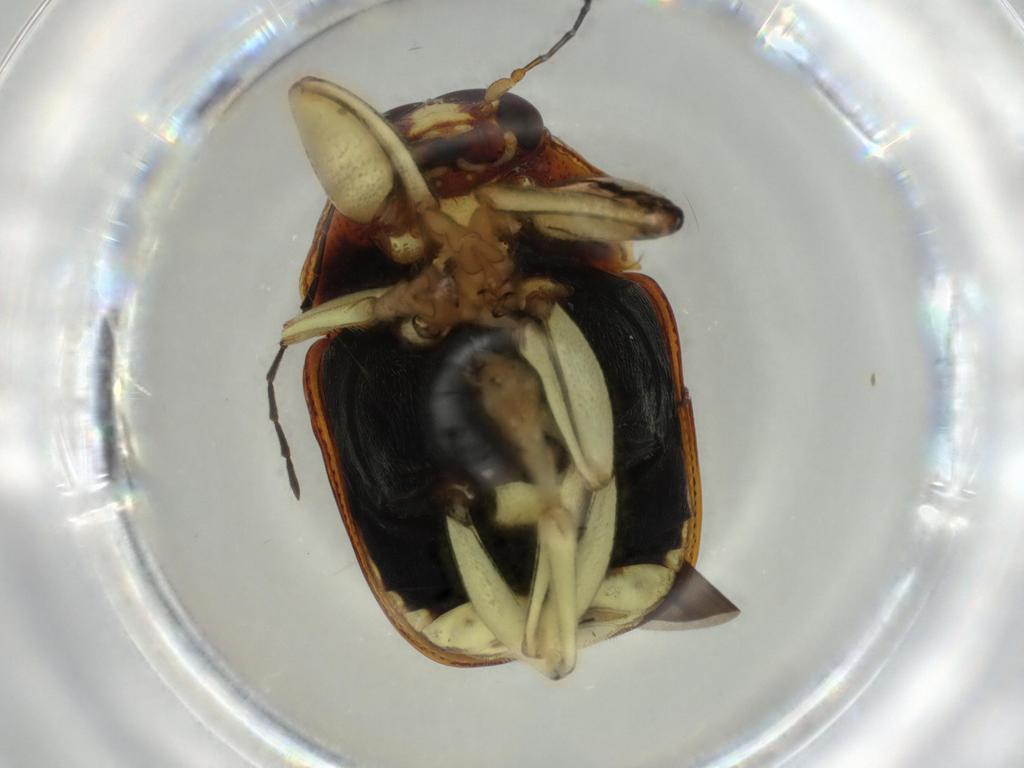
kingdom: Animalia
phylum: Arthropoda
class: Insecta
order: Coleoptera
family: Chrysomelidae
